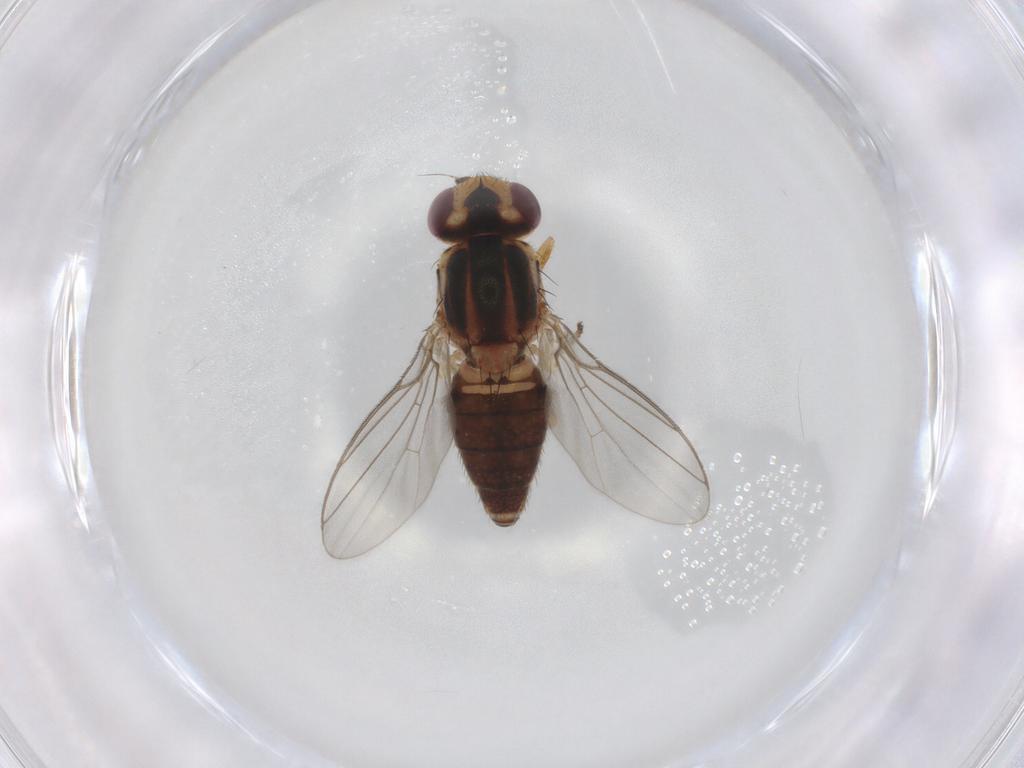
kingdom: Animalia
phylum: Arthropoda
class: Insecta
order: Diptera
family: Chloropidae
